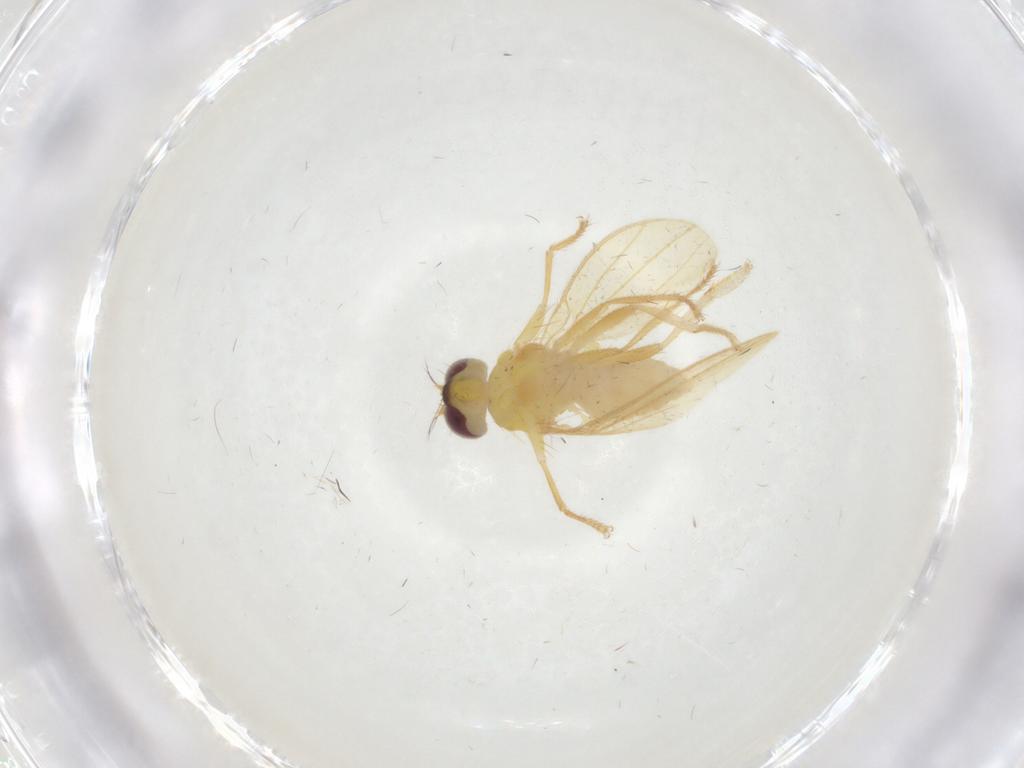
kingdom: Animalia
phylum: Arthropoda
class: Insecta
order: Diptera
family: Periscelididae
